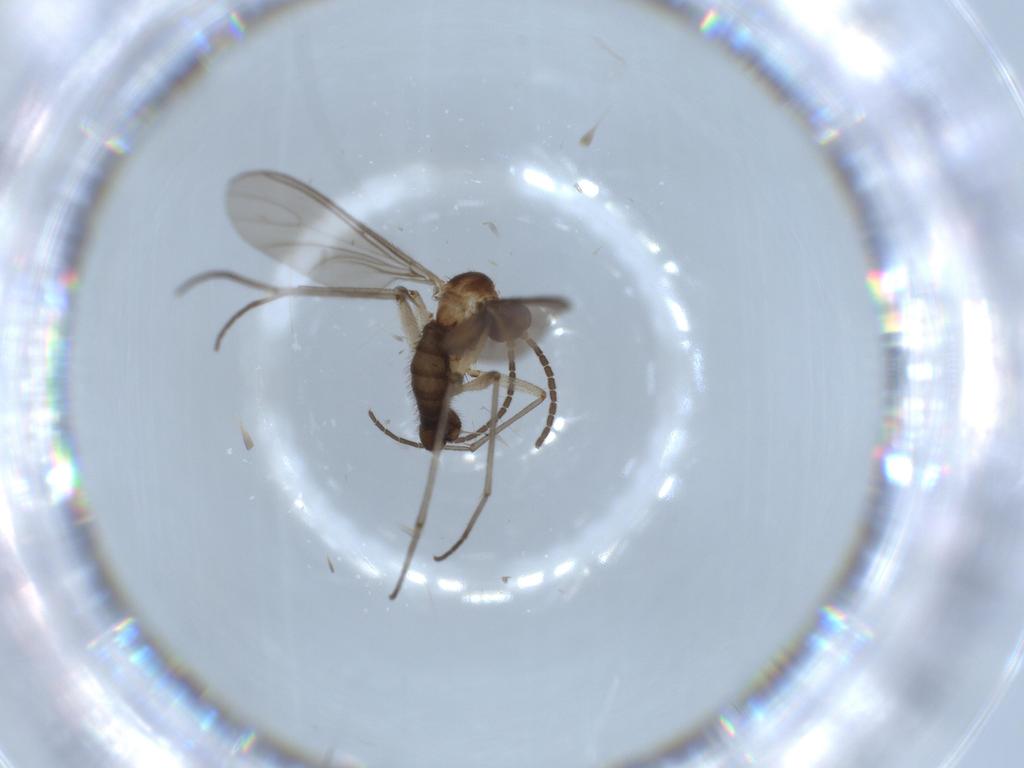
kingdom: Animalia
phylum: Arthropoda
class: Insecta
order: Diptera
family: Sciaridae
